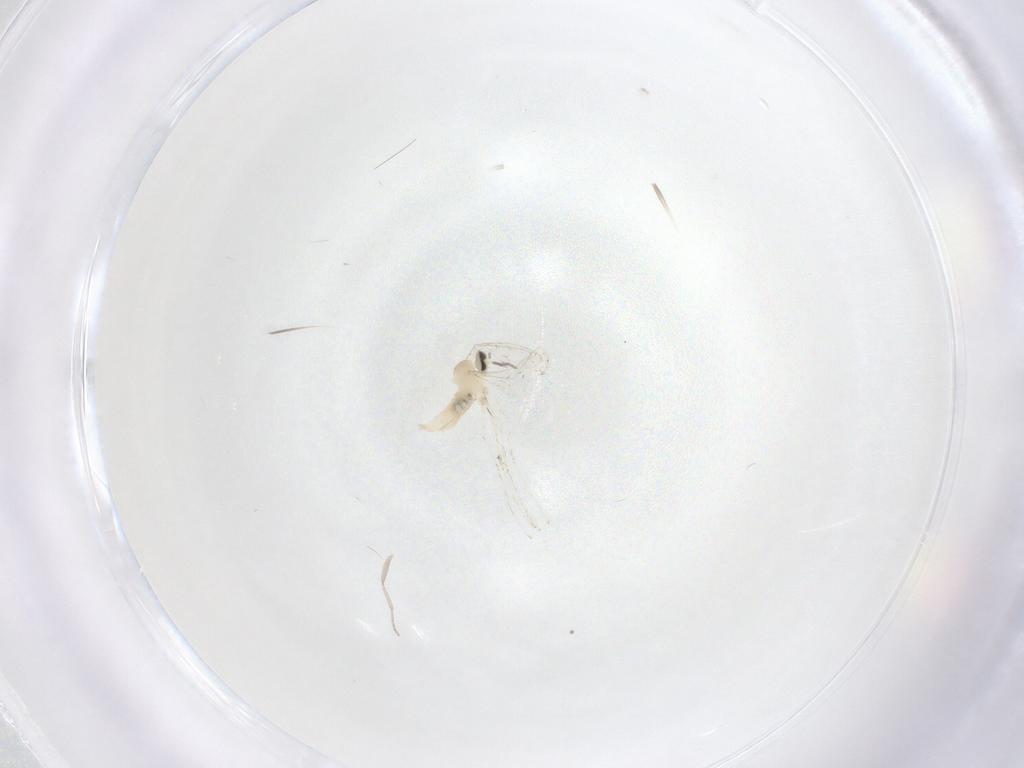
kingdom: Animalia
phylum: Arthropoda
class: Insecta
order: Diptera
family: Cecidomyiidae
